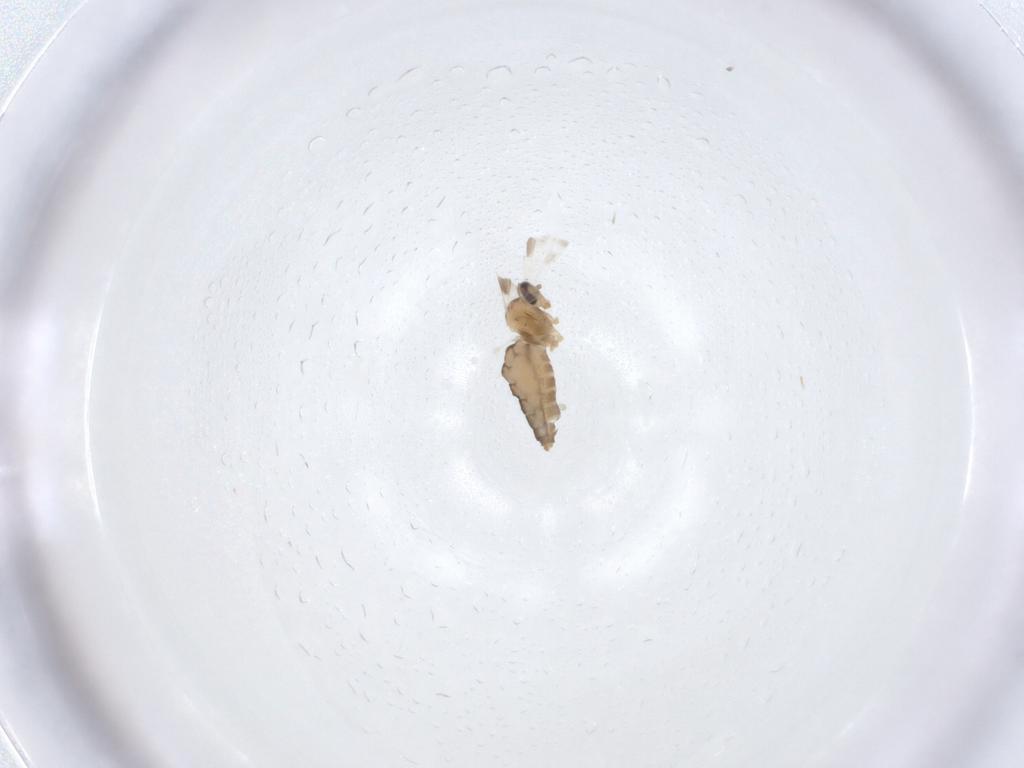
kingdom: Animalia
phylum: Arthropoda
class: Insecta
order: Diptera
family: Cecidomyiidae
